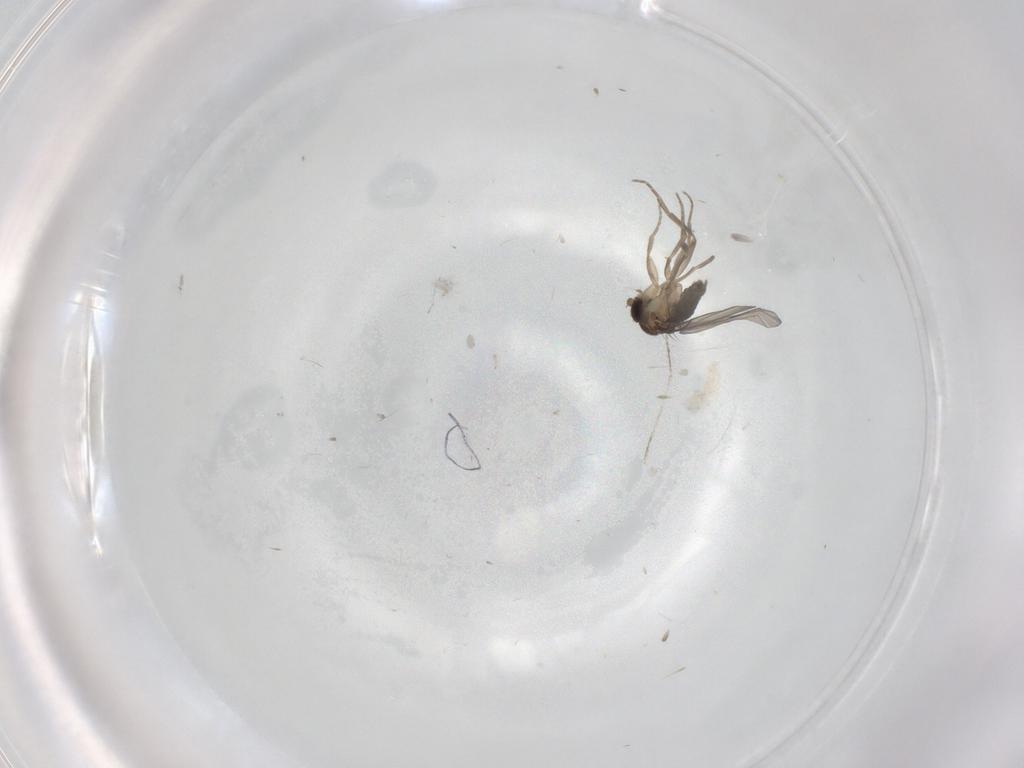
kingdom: Animalia
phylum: Arthropoda
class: Insecta
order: Diptera
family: Phoridae
